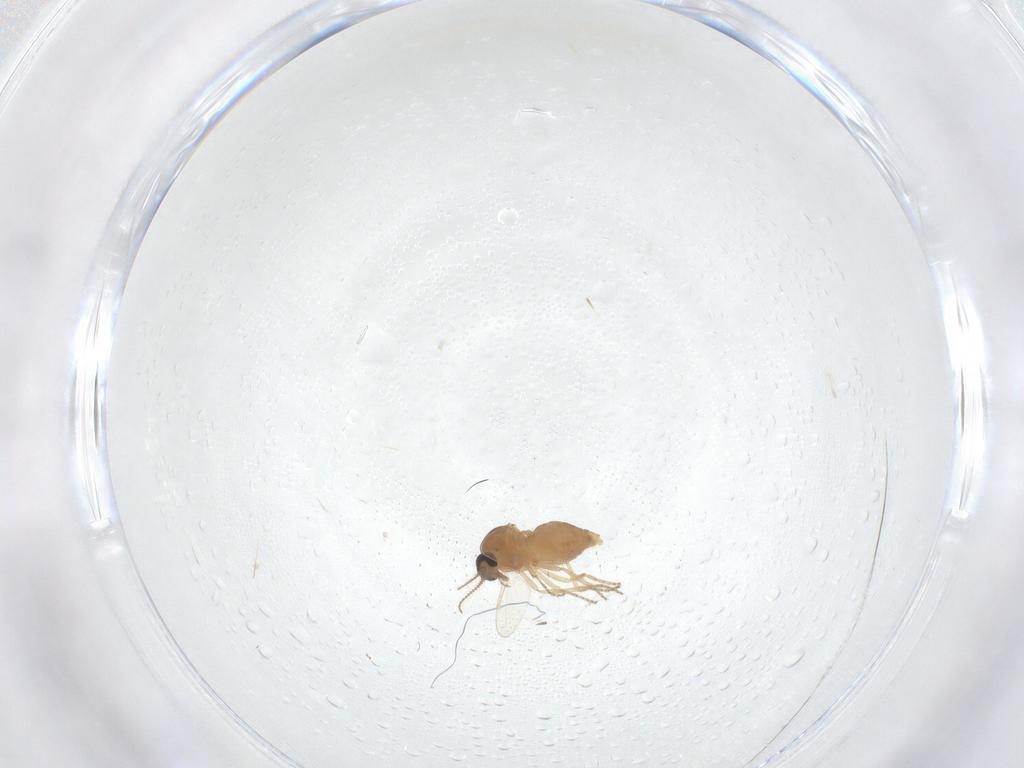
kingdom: Animalia
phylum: Arthropoda
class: Insecta
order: Diptera
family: Ceratopogonidae
